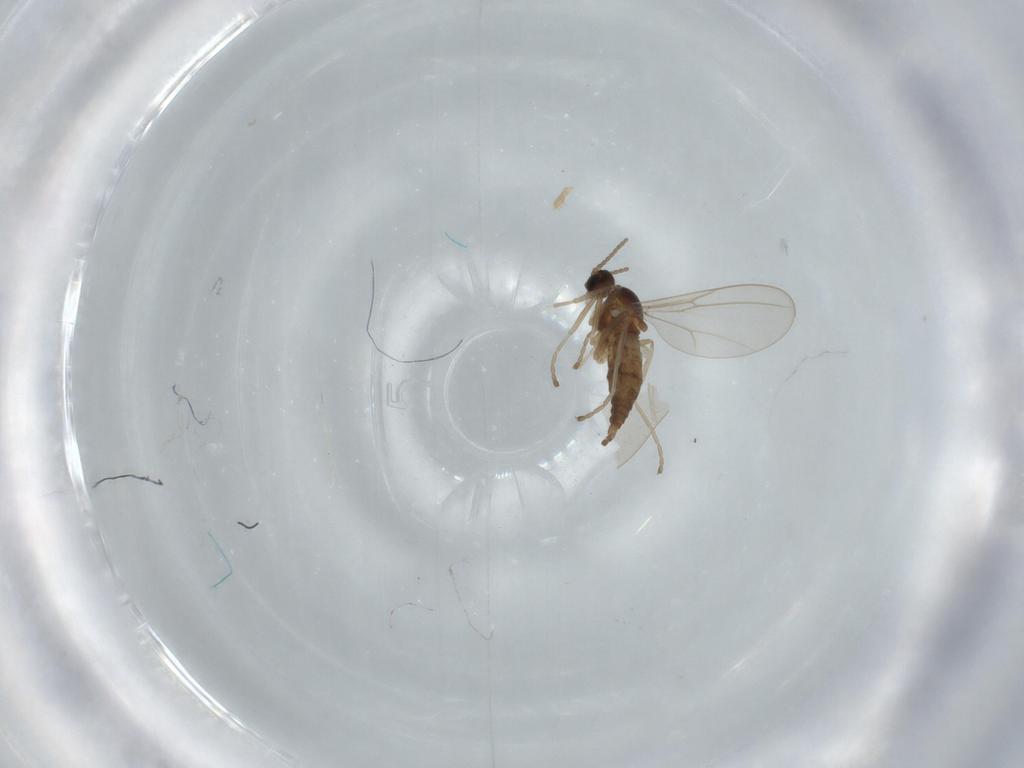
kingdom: Animalia
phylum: Arthropoda
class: Insecta
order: Diptera
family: Cecidomyiidae
